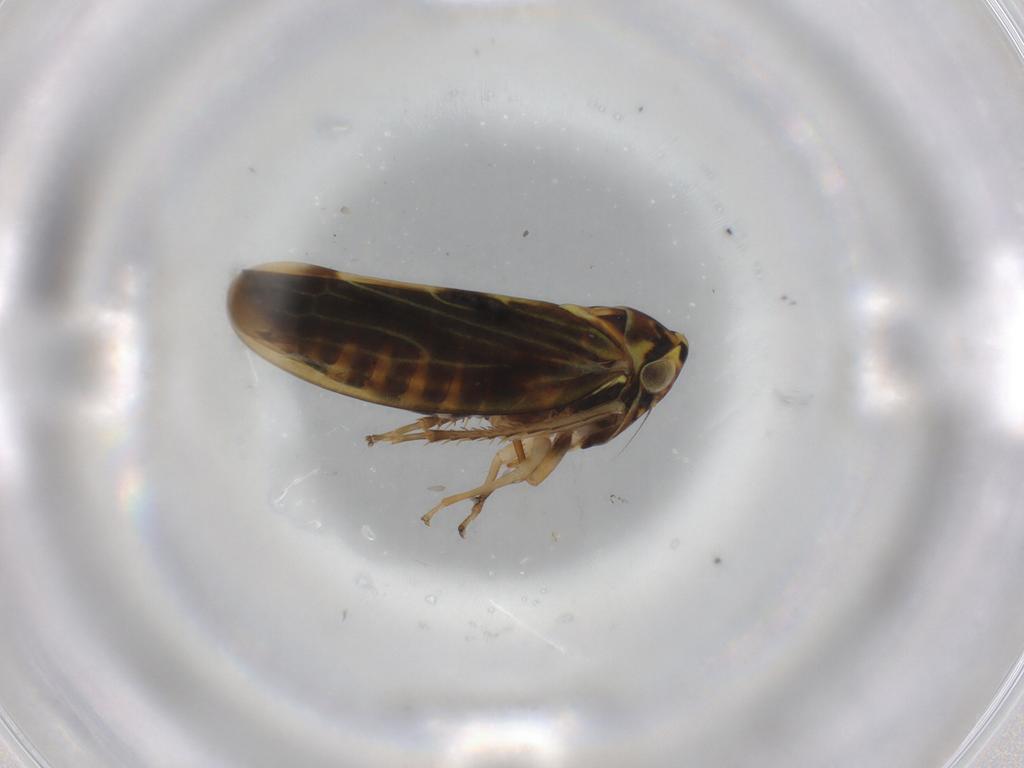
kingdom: Animalia
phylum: Arthropoda
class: Insecta
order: Hemiptera
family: Cicadellidae
